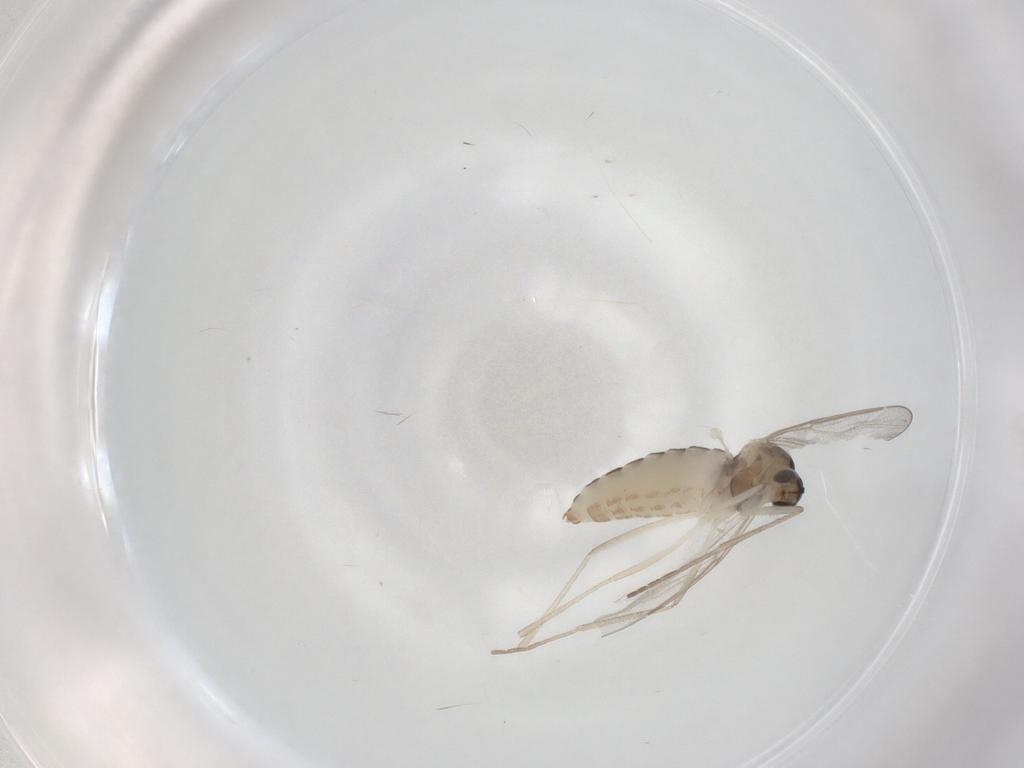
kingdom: Animalia
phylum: Arthropoda
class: Insecta
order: Diptera
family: Cecidomyiidae
